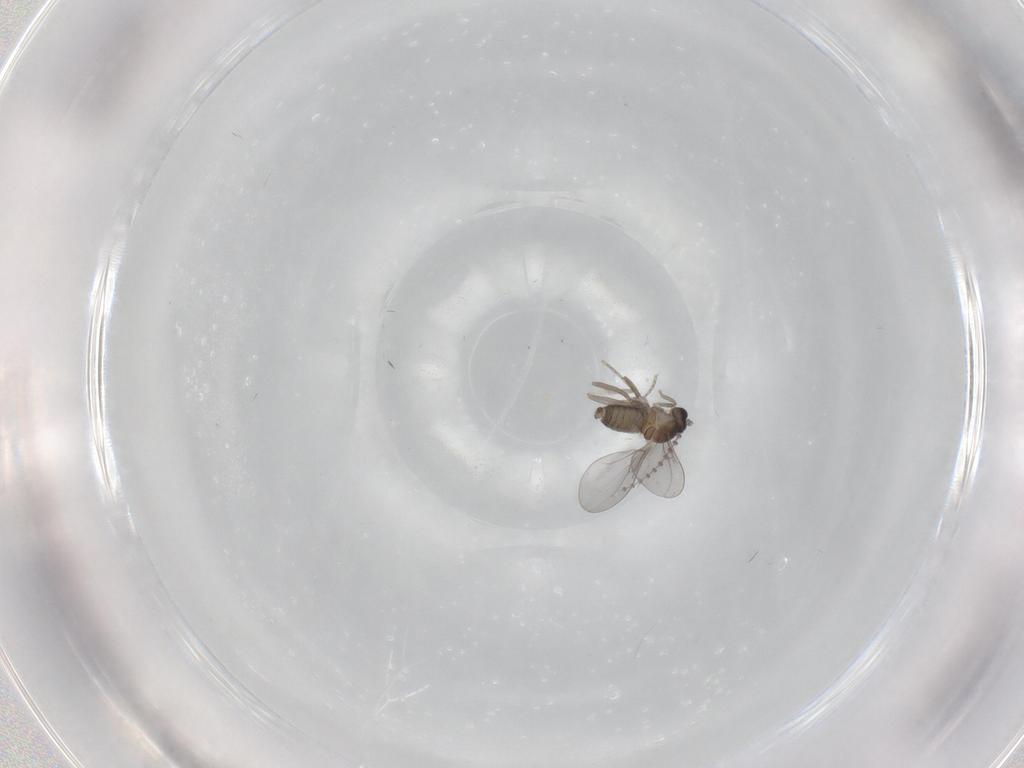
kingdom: Animalia
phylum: Arthropoda
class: Insecta
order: Diptera
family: Cecidomyiidae
